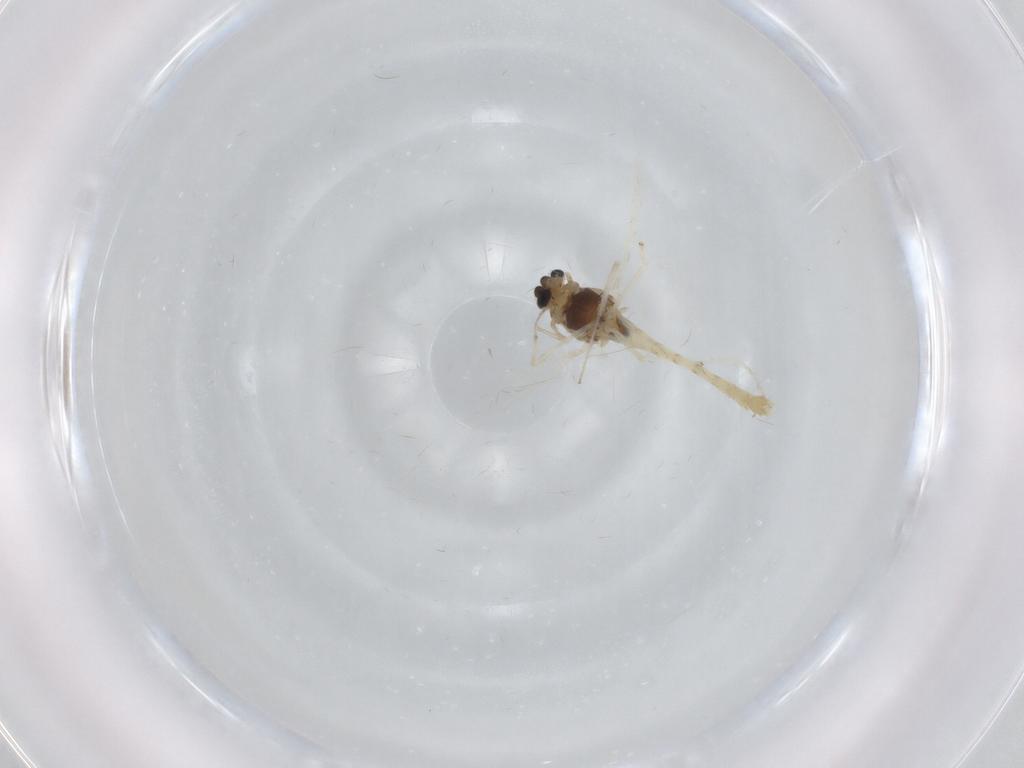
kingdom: Animalia
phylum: Arthropoda
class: Insecta
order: Diptera
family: Chironomidae
